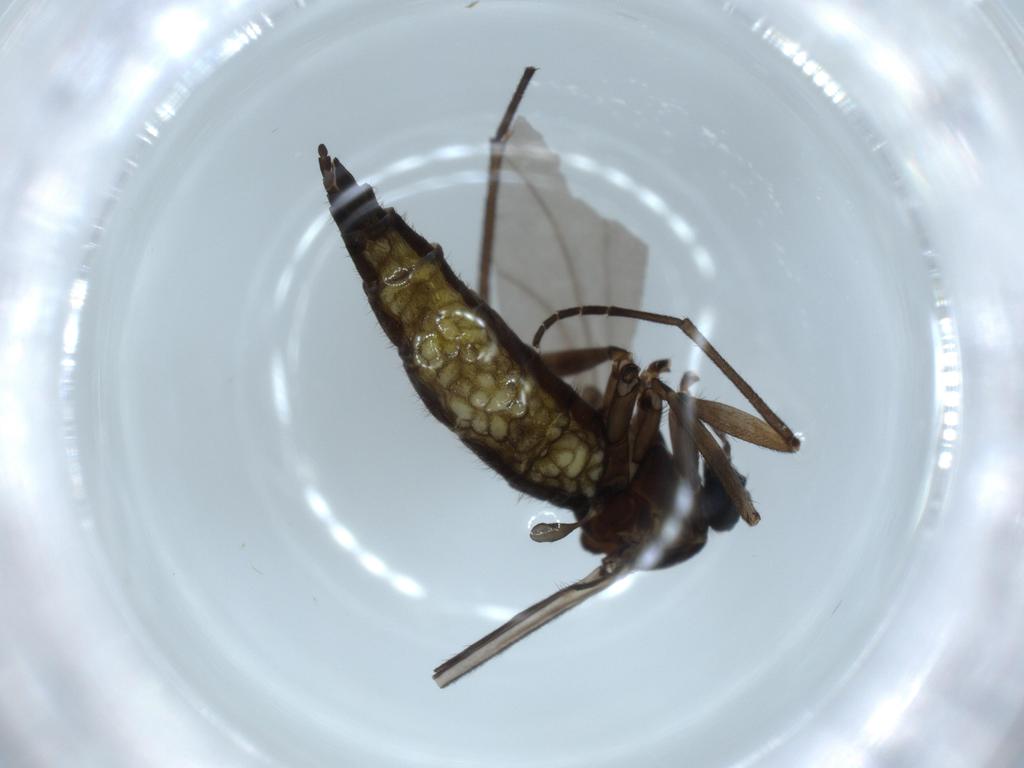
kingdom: Animalia
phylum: Arthropoda
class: Insecta
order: Diptera
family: Sciaridae
